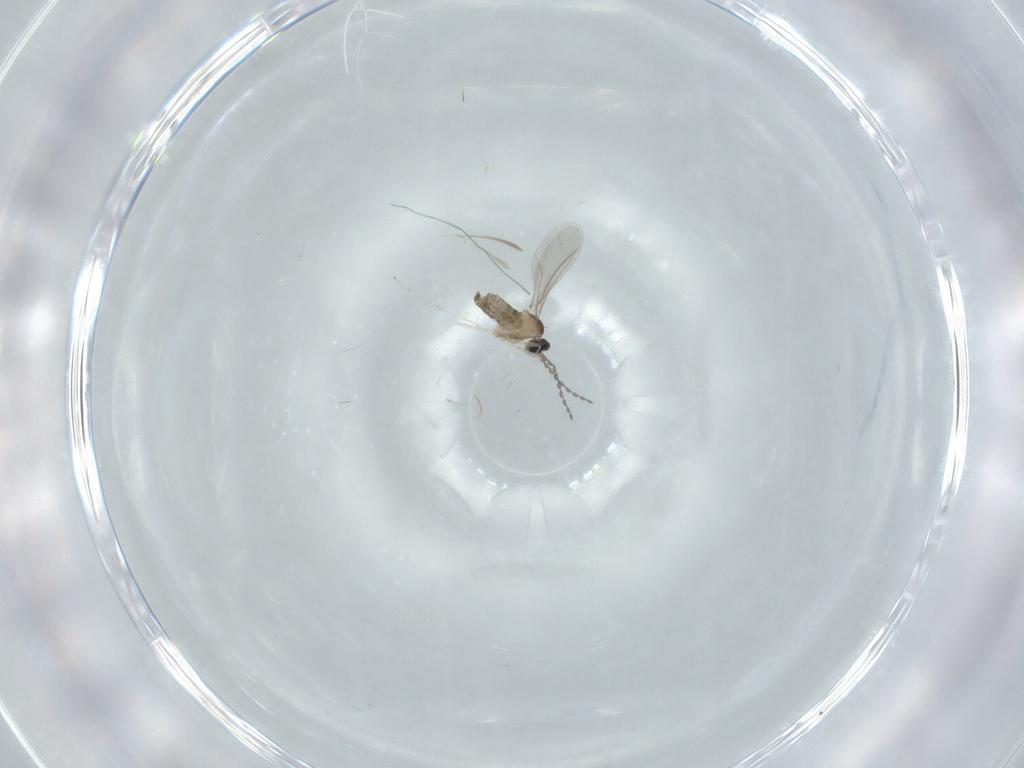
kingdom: Animalia
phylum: Arthropoda
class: Insecta
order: Diptera
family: Cecidomyiidae
